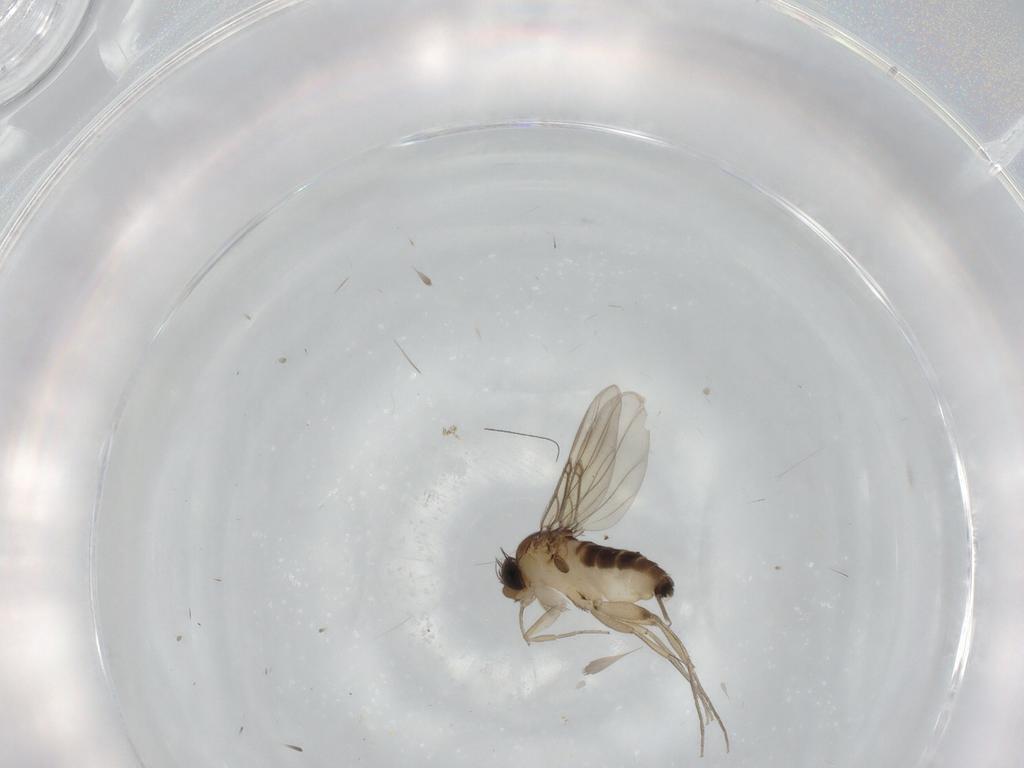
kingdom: Animalia
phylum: Arthropoda
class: Insecta
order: Diptera
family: Phoridae
